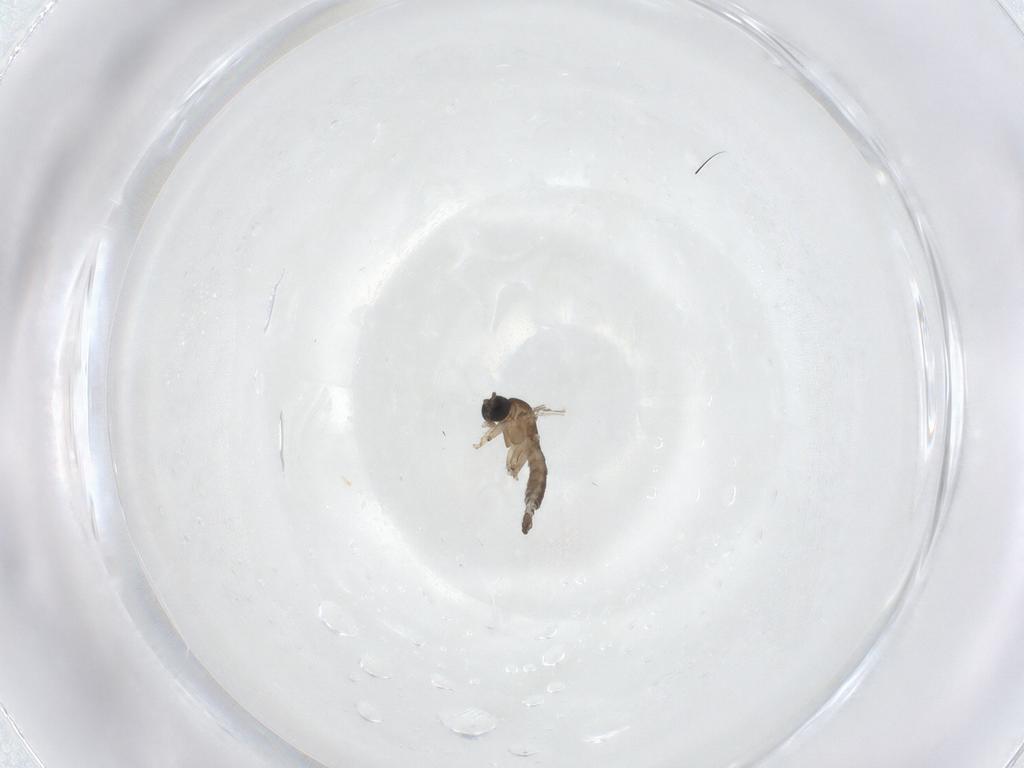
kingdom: Animalia
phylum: Arthropoda
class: Insecta
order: Diptera
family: Sciaridae
